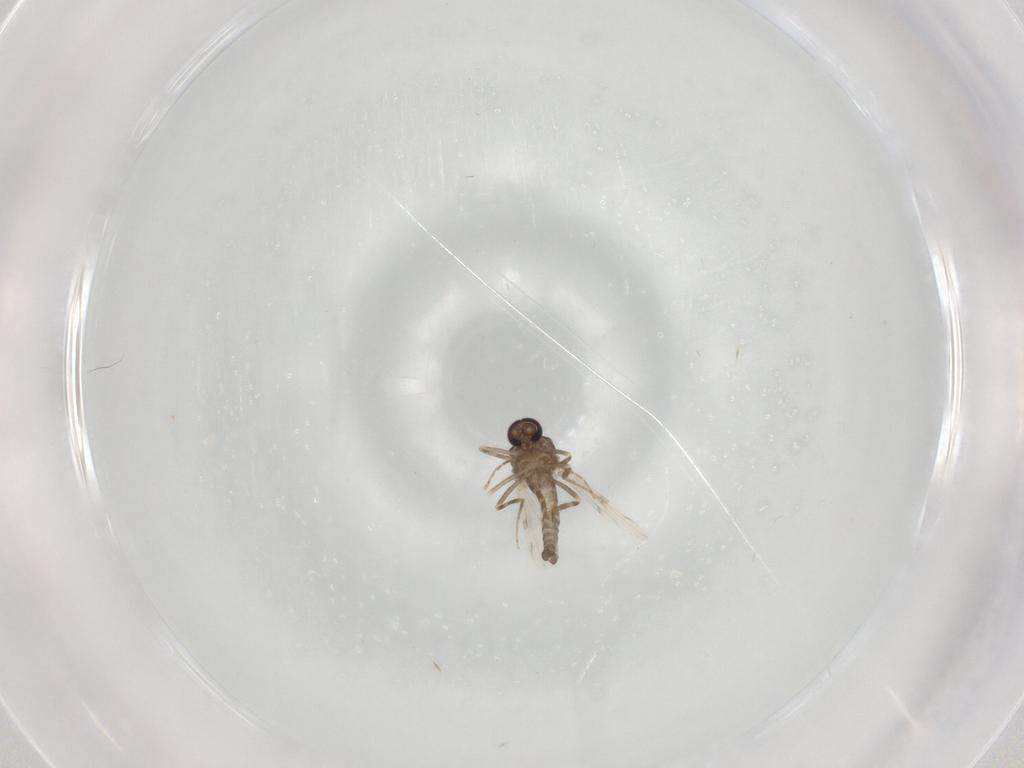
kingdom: Animalia
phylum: Arthropoda
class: Insecta
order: Diptera
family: Ceratopogonidae
